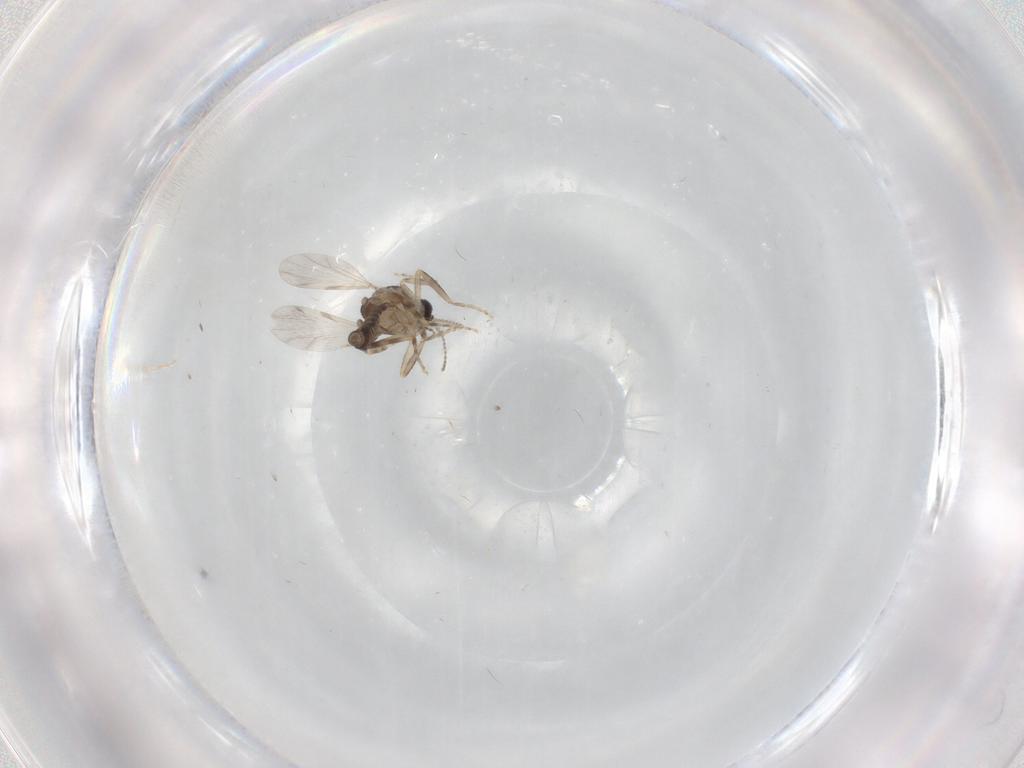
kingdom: Animalia
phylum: Arthropoda
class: Insecta
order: Diptera
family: Ceratopogonidae
